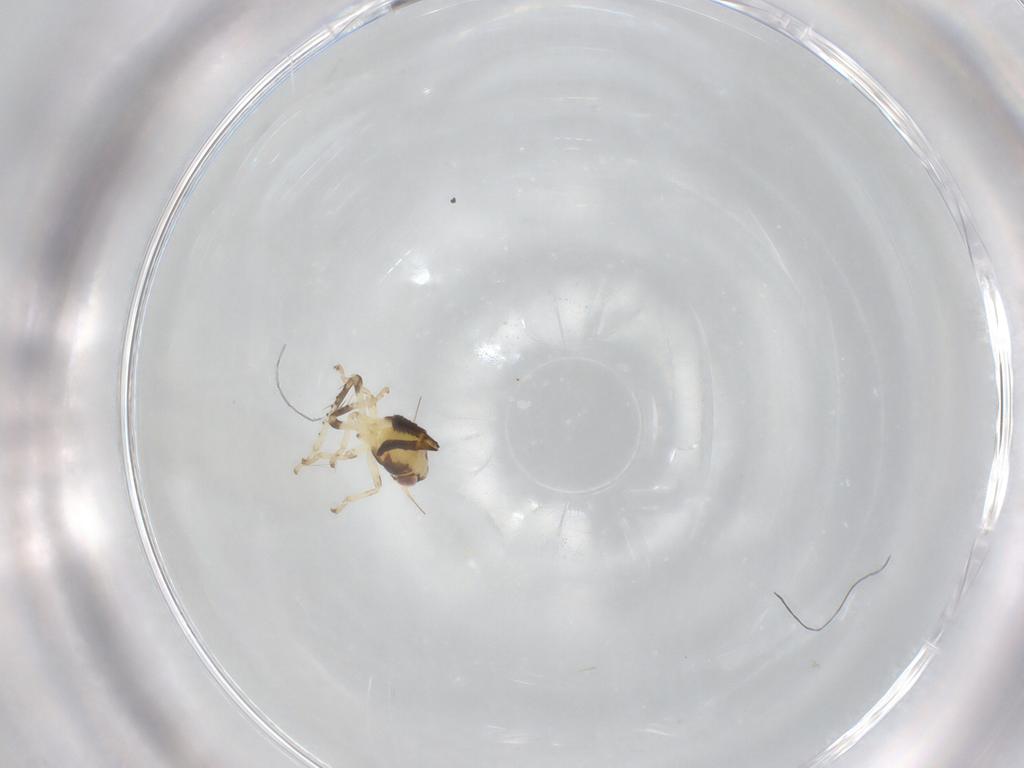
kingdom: Animalia
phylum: Arthropoda
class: Insecta
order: Hemiptera
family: Cicadellidae
